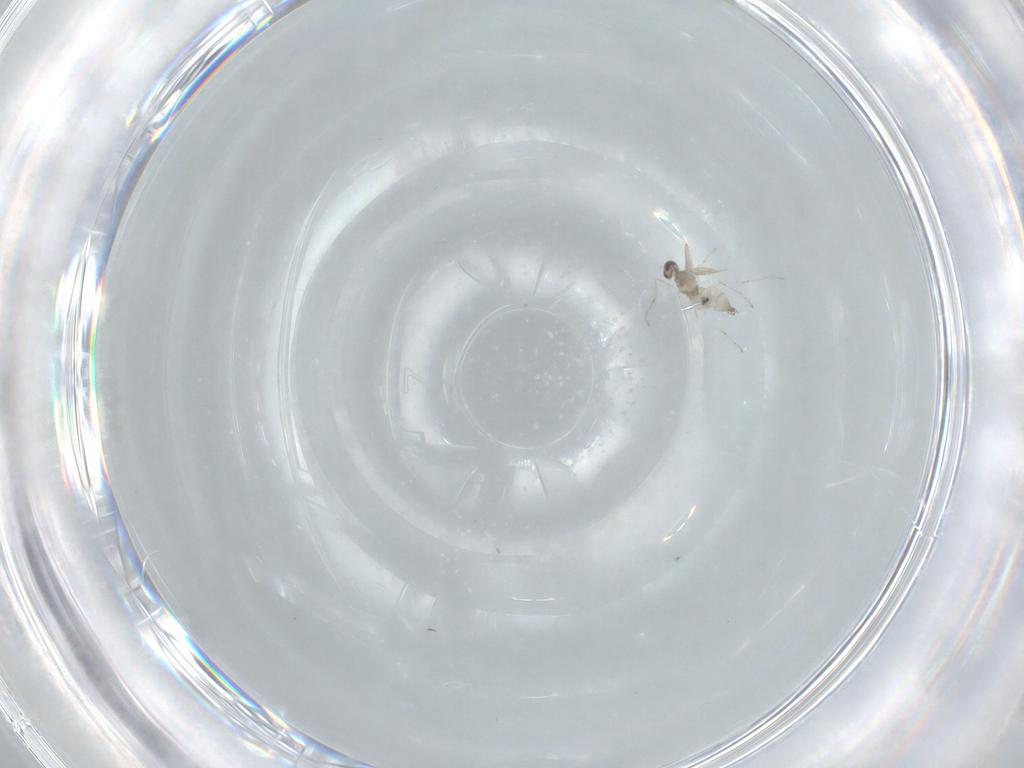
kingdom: Animalia
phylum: Arthropoda
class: Insecta
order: Diptera
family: Cecidomyiidae
